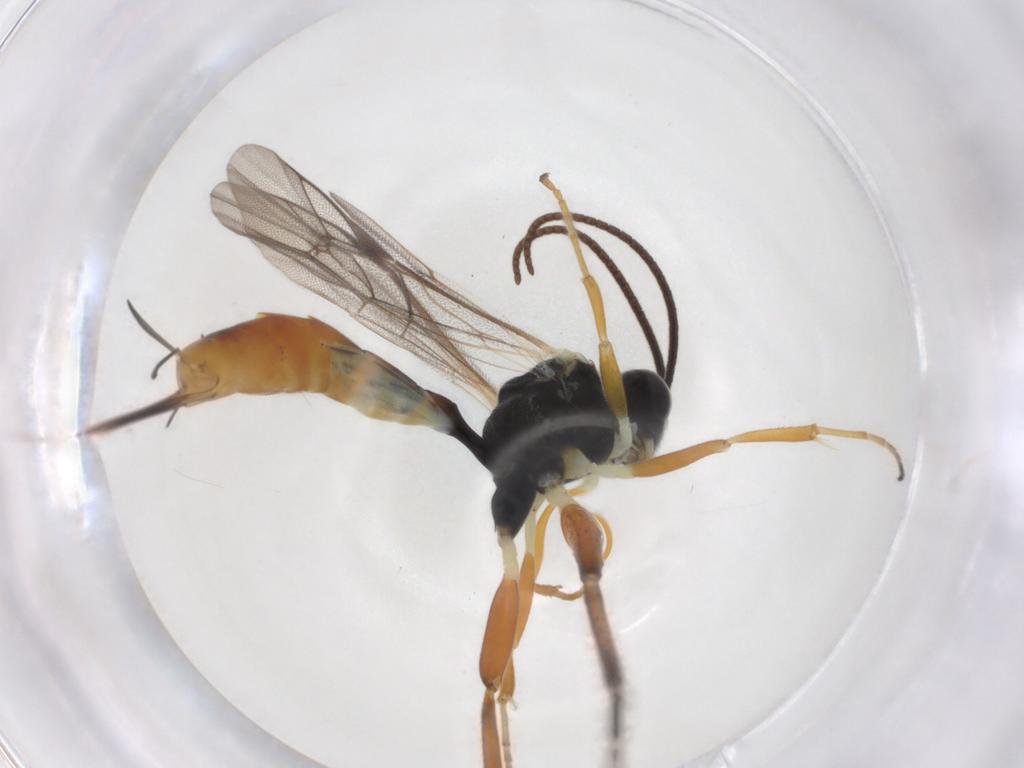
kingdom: Animalia
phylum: Arthropoda
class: Insecta
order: Hymenoptera
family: Ichneumonidae
